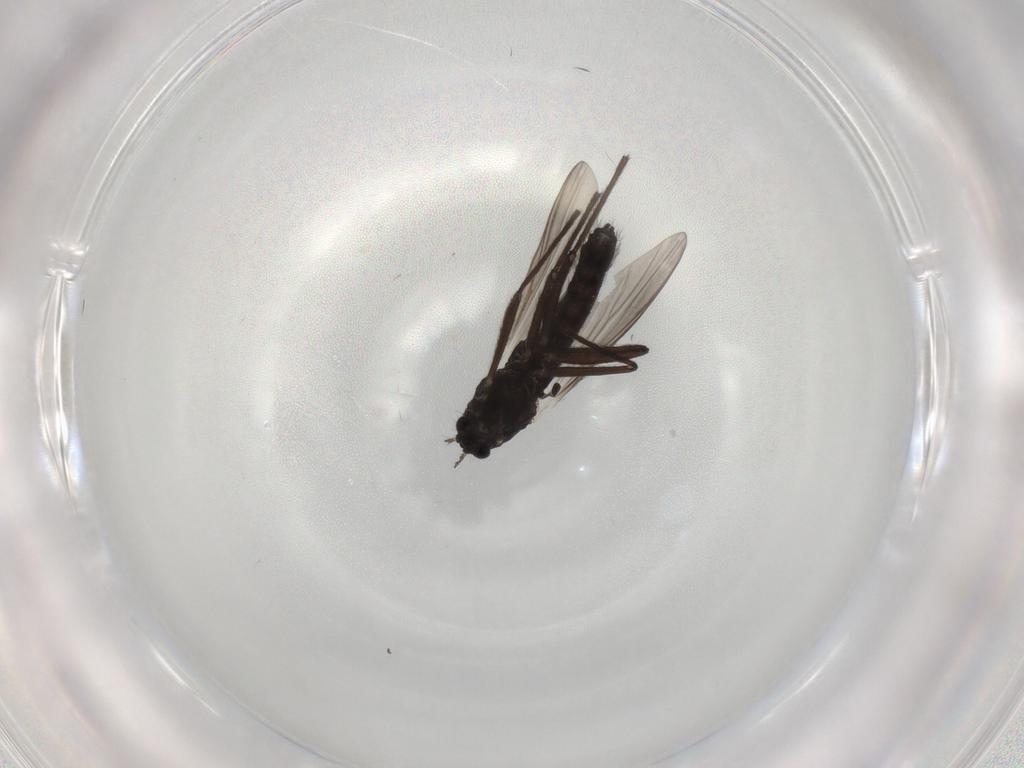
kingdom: Animalia
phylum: Arthropoda
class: Insecta
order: Diptera
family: Chironomidae
